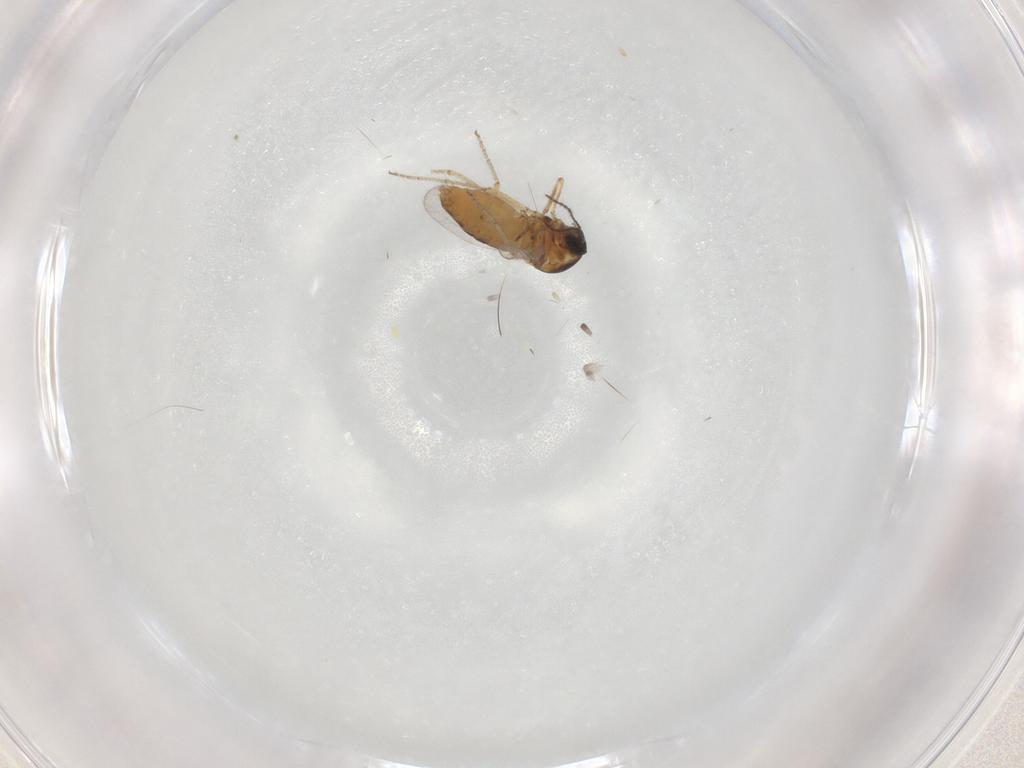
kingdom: Animalia
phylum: Arthropoda
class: Insecta
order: Diptera
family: Ceratopogonidae
